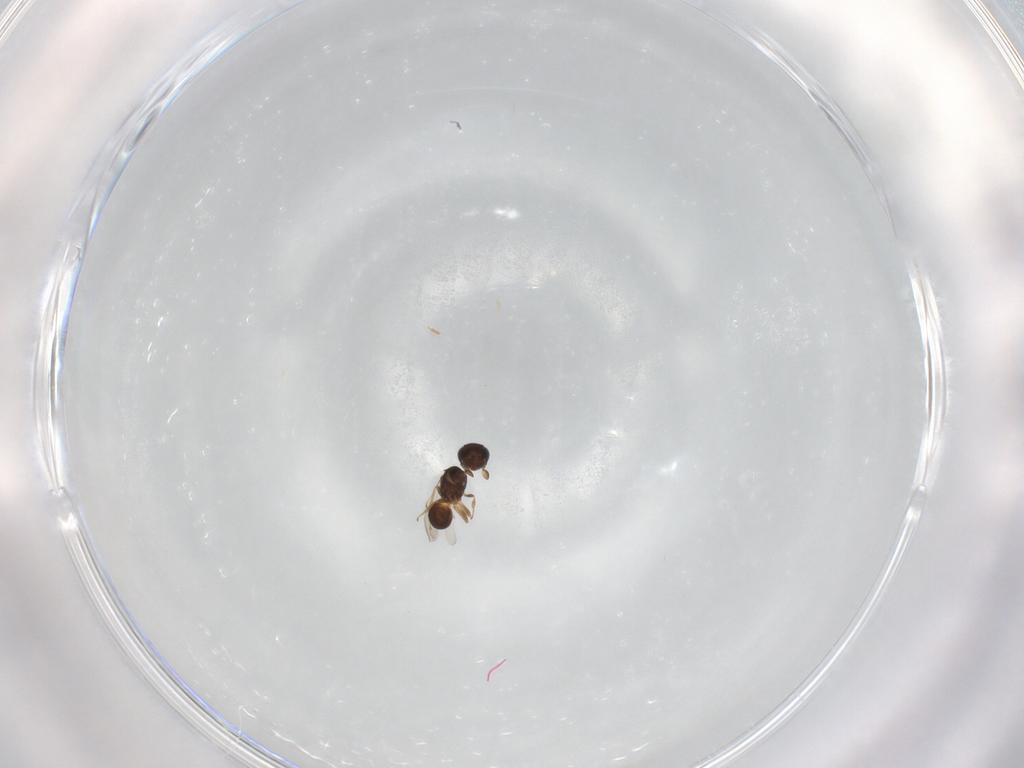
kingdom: Animalia
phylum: Arthropoda
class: Insecta
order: Hymenoptera
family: Scelionidae
